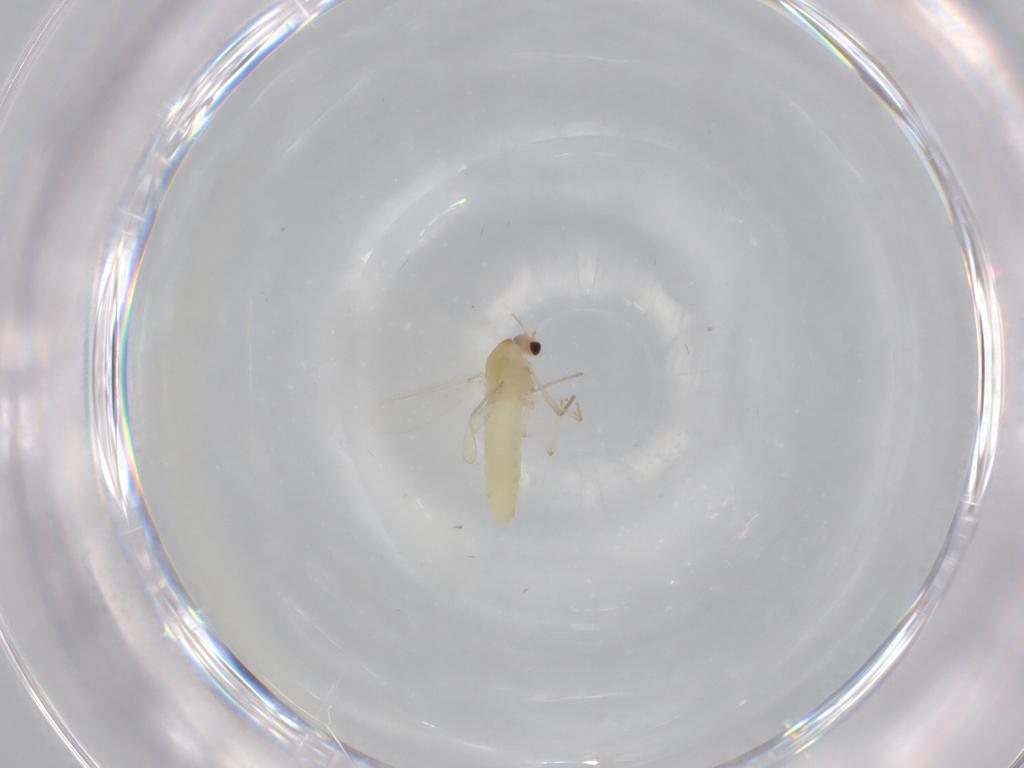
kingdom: Animalia
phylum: Arthropoda
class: Insecta
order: Diptera
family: Chironomidae
